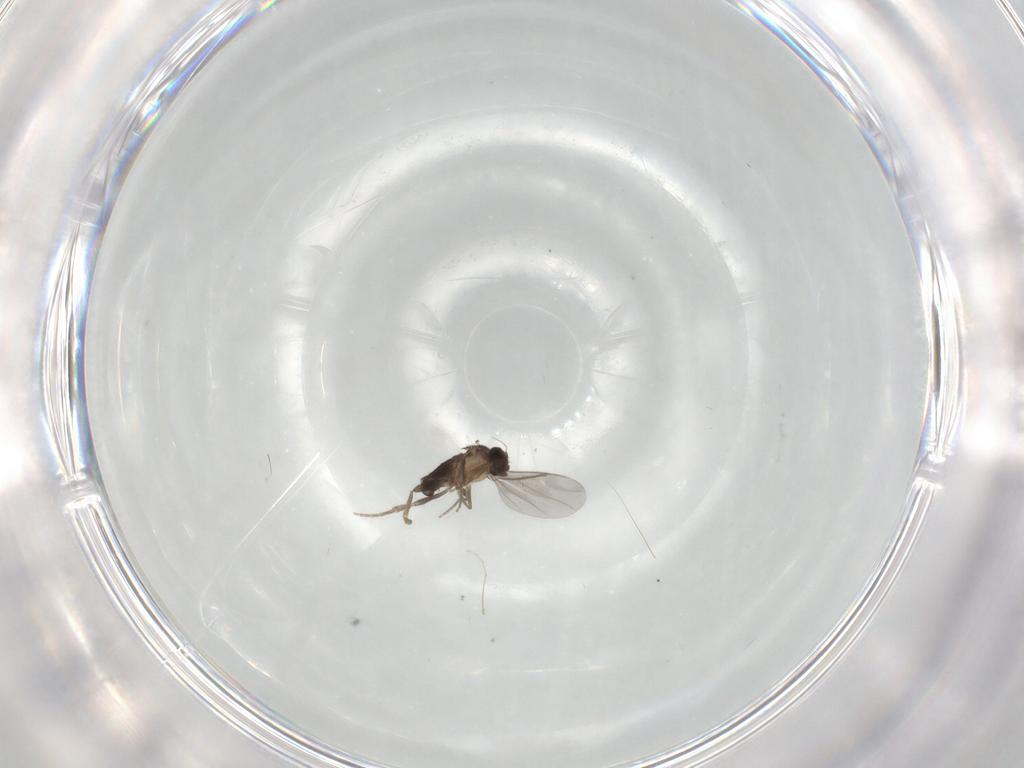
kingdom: Animalia
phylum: Arthropoda
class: Insecta
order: Diptera
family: Cecidomyiidae
